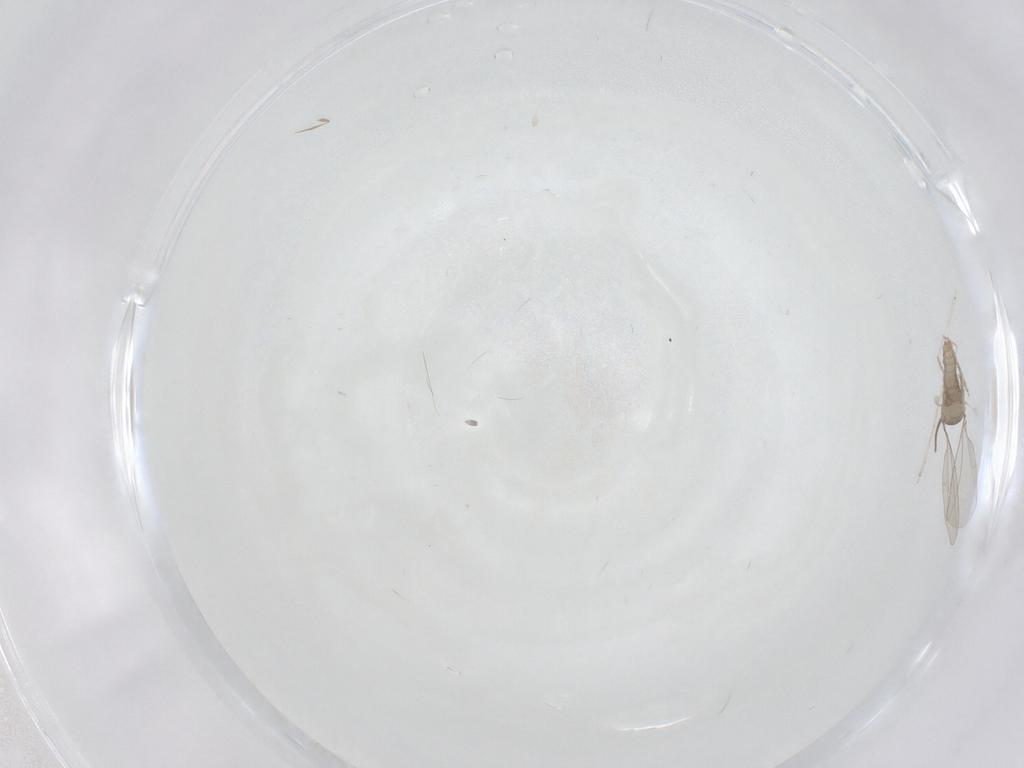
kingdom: Animalia
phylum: Arthropoda
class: Insecta
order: Diptera
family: Cecidomyiidae
